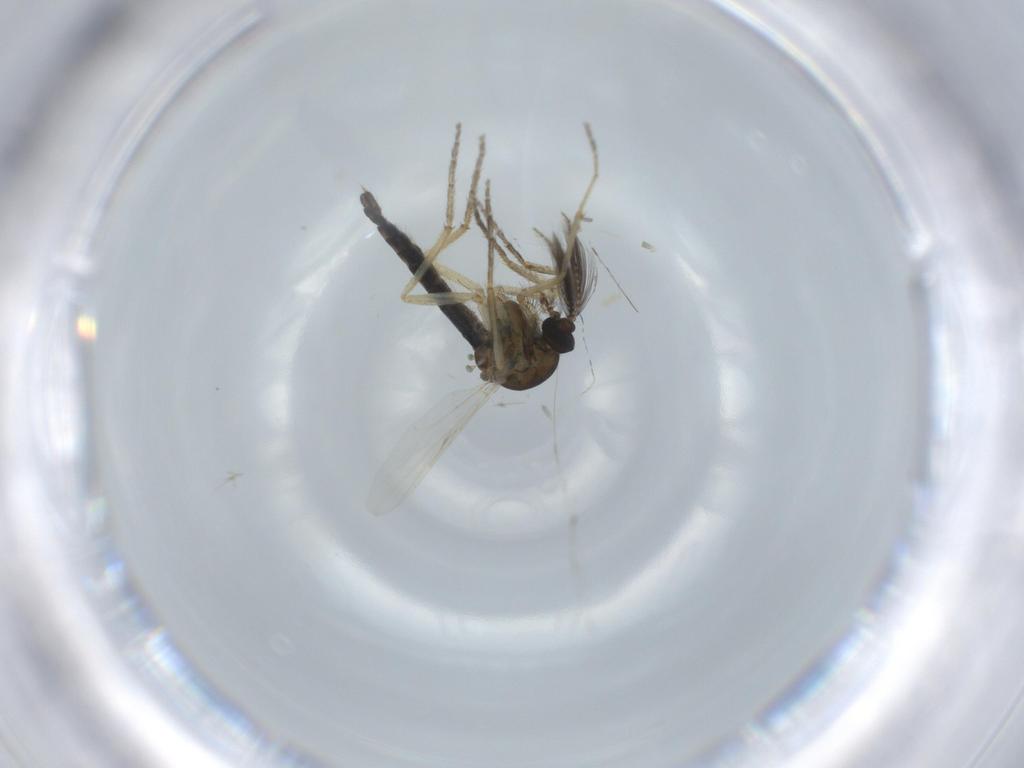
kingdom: Animalia
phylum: Arthropoda
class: Insecta
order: Diptera
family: Ceratopogonidae
